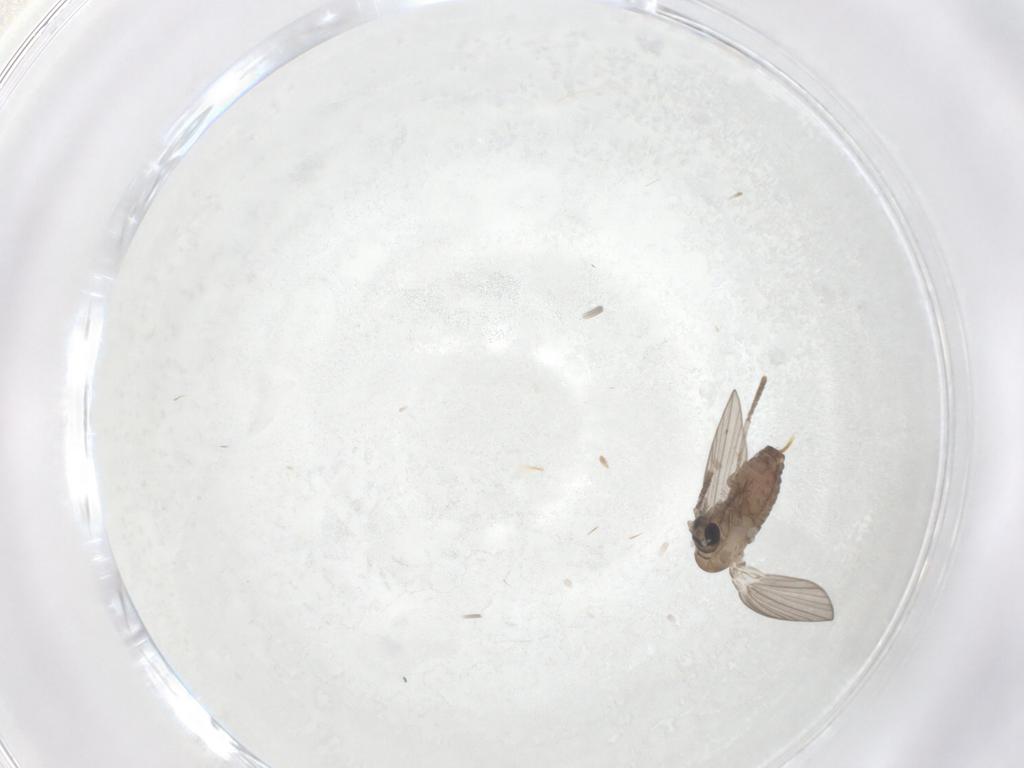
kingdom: Animalia
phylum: Arthropoda
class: Insecta
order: Diptera
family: Psychodidae
